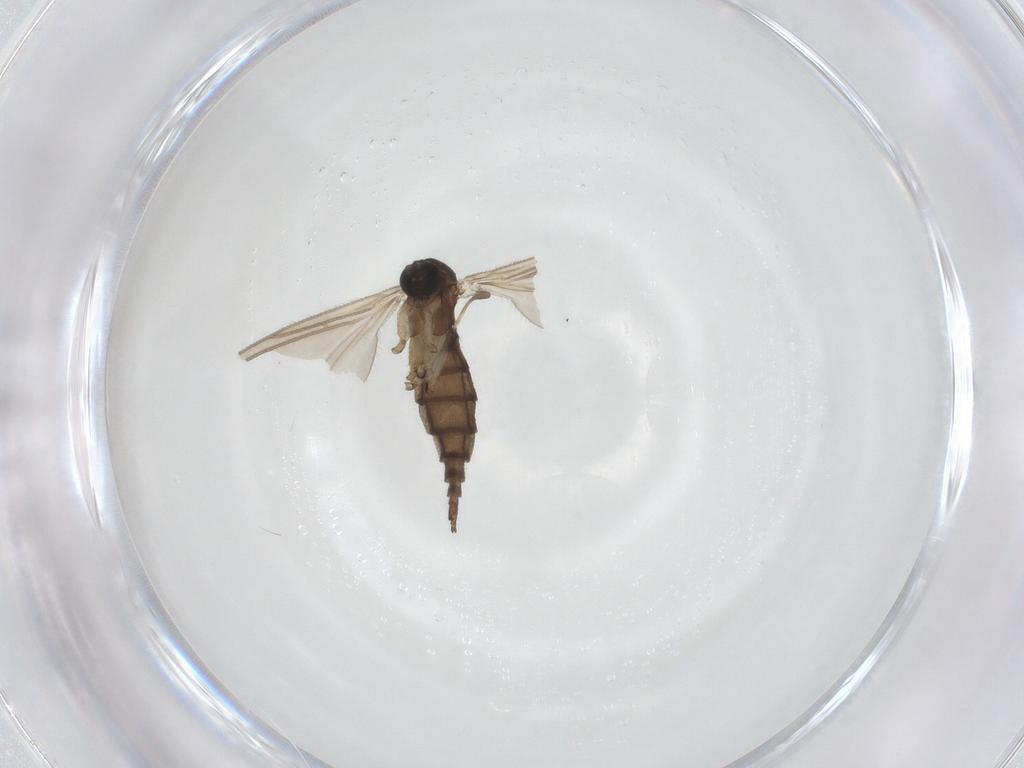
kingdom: Animalia
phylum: Arthropoda
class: Insecta
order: Diptera
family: Sciaridae
